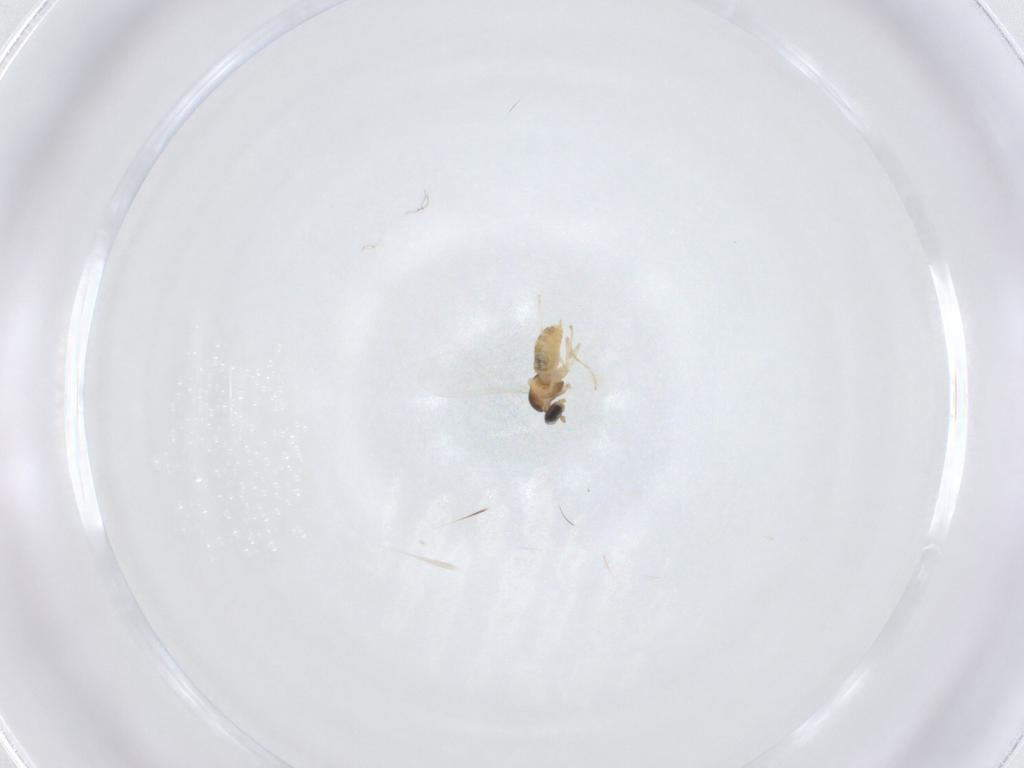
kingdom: Animalia
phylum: Arthropoda
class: Insecta
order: Diptera
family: Cecidomyiidae
